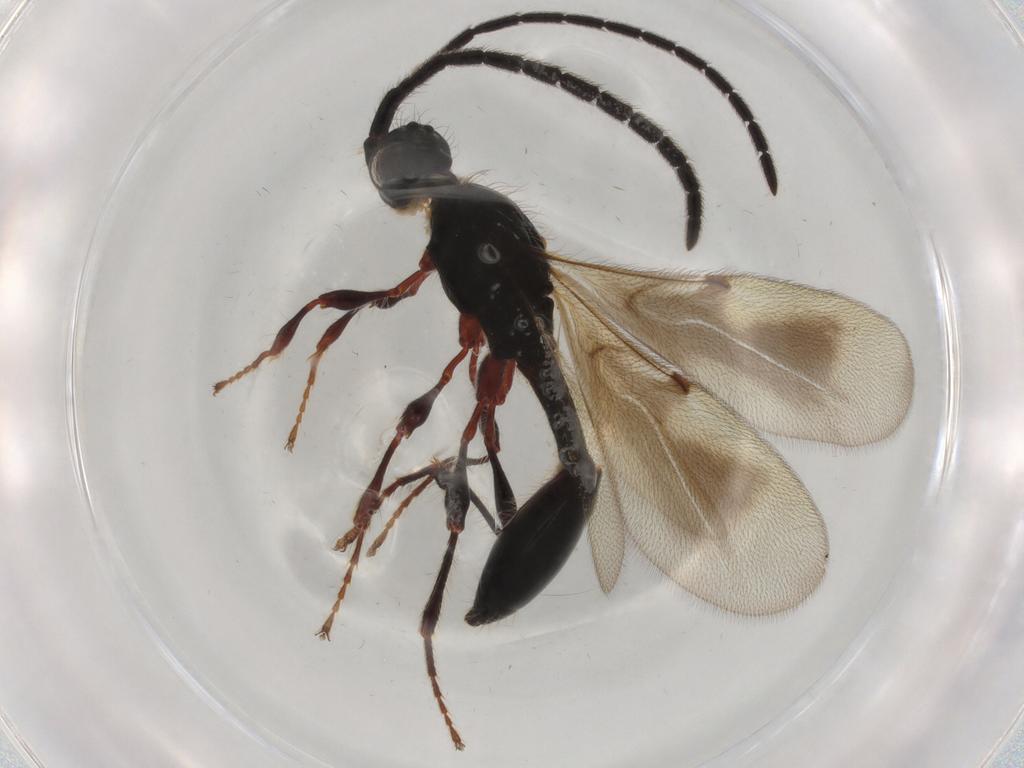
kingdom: Animalia
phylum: Arthropoda
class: Insecta
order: Hymenoptera
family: Diapriidae
